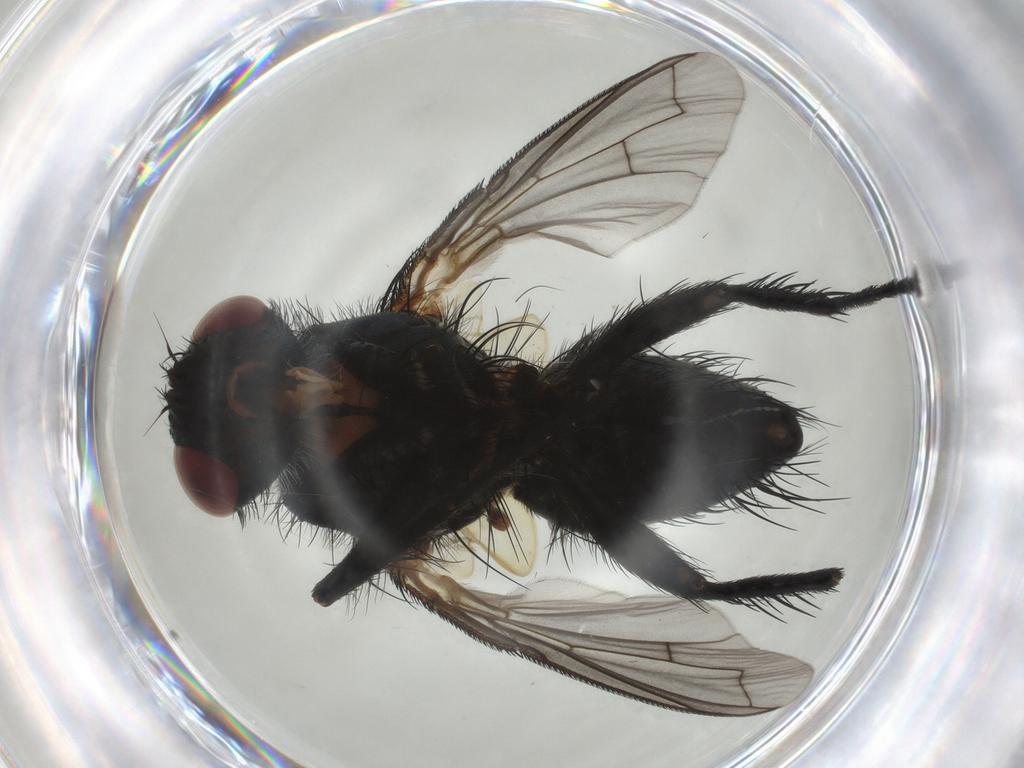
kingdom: Animalia
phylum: Arthropoda
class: Insecta
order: Diptera
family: Tachinidae
